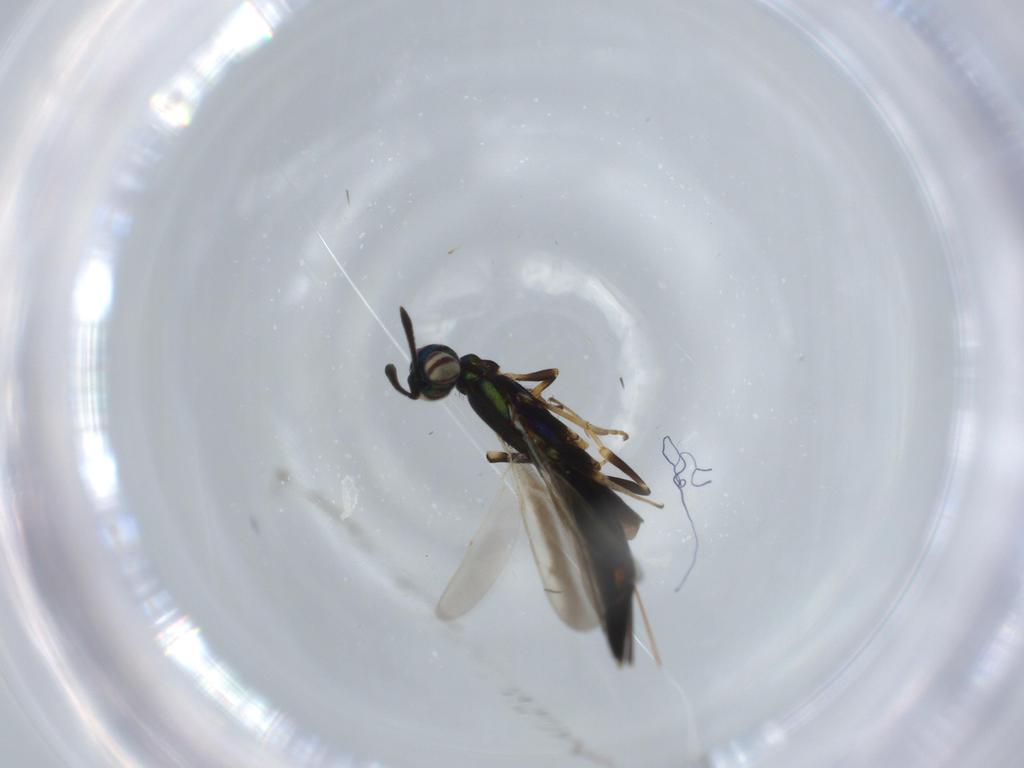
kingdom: Animalia
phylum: Arthropoda
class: Insecta
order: Hymenoptera
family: Eupelmidae
